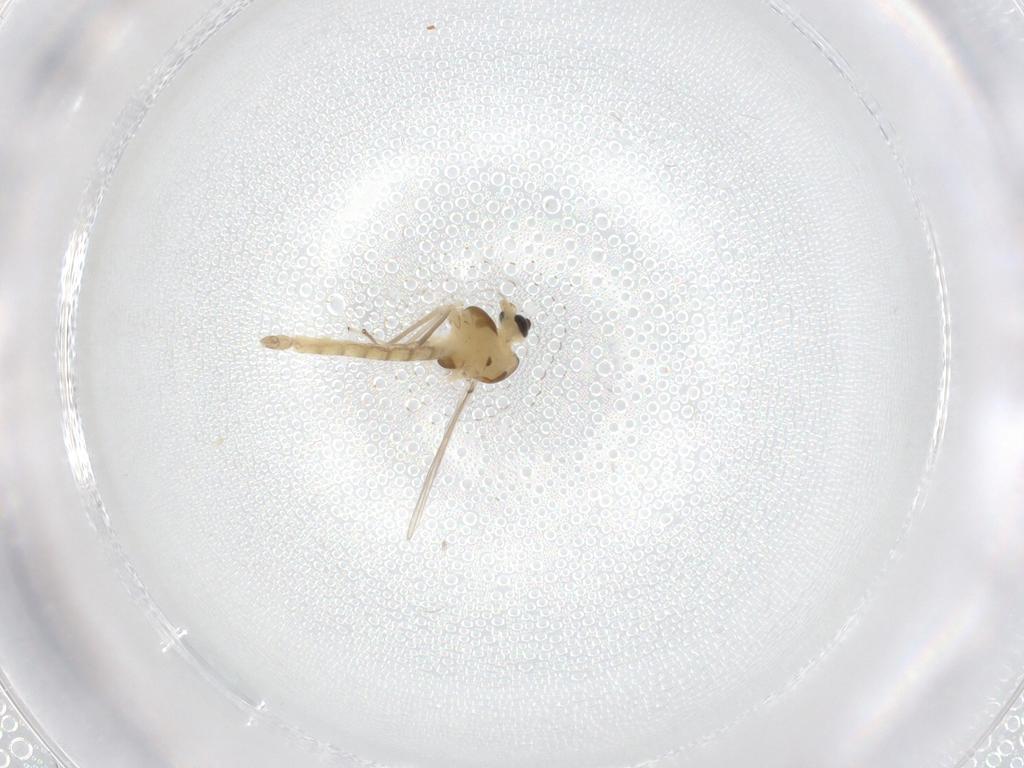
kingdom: Animalia
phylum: Arthropoda
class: Insecta
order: Diptera
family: Chironomidae
